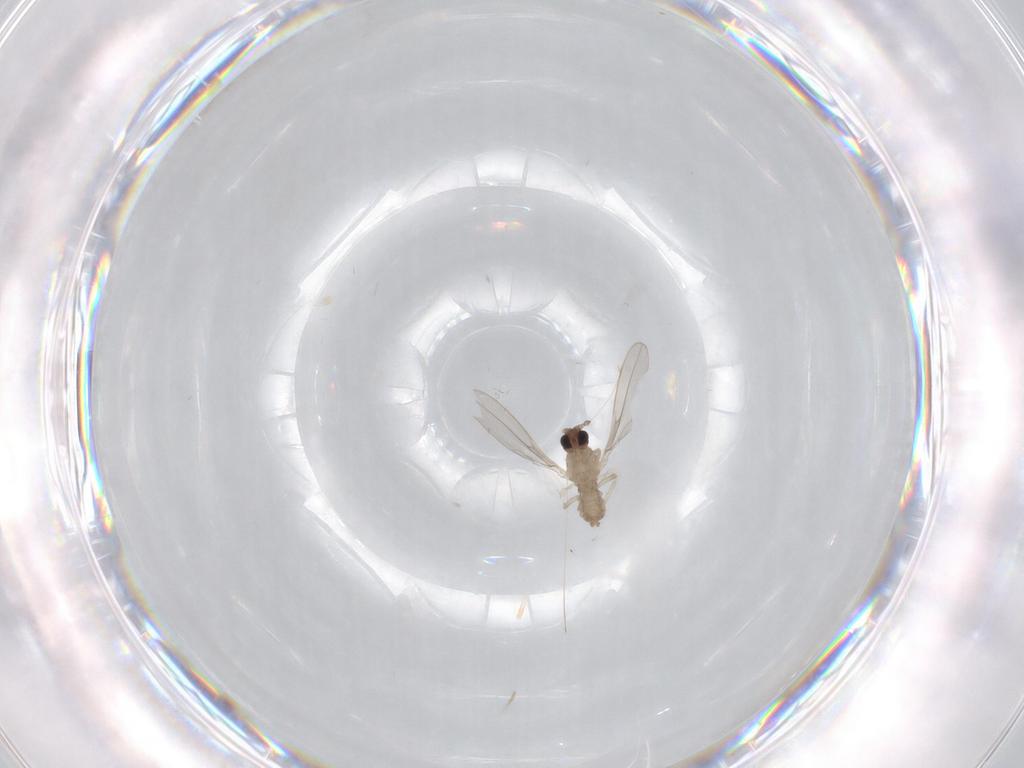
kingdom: Animalia
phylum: Arthropoda
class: Insecta
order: Diptera
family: Cecidomyiidae
